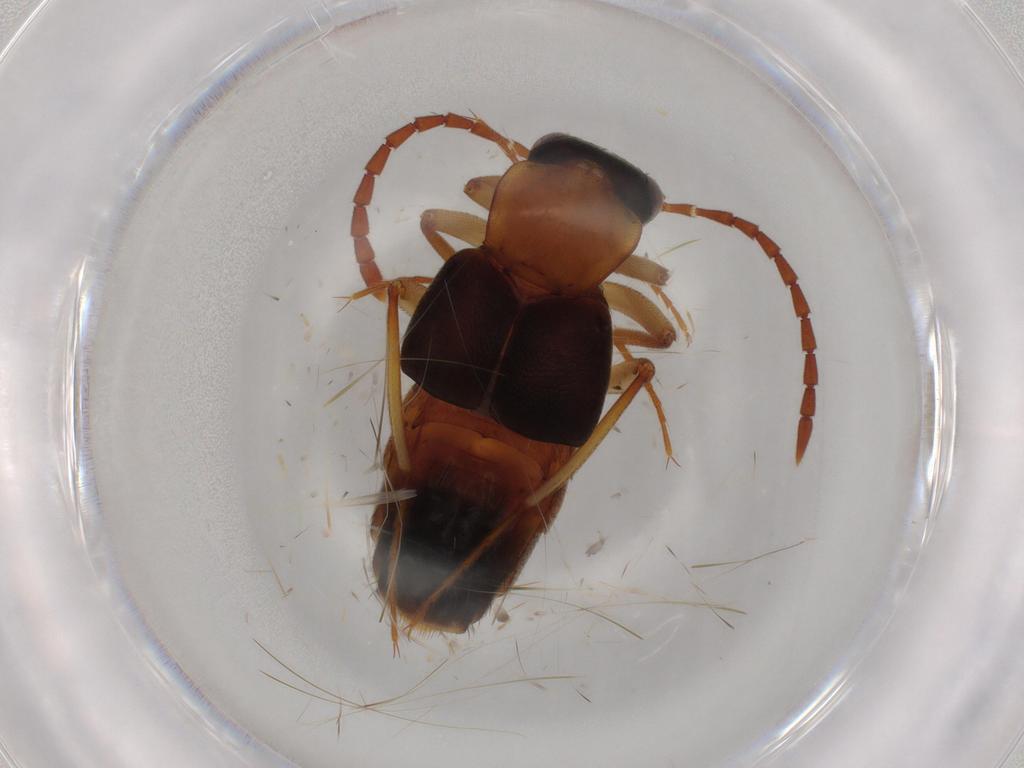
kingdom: Animalia
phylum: Arthropoda
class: Insecta
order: Coleoptera
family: Staphylinidae
